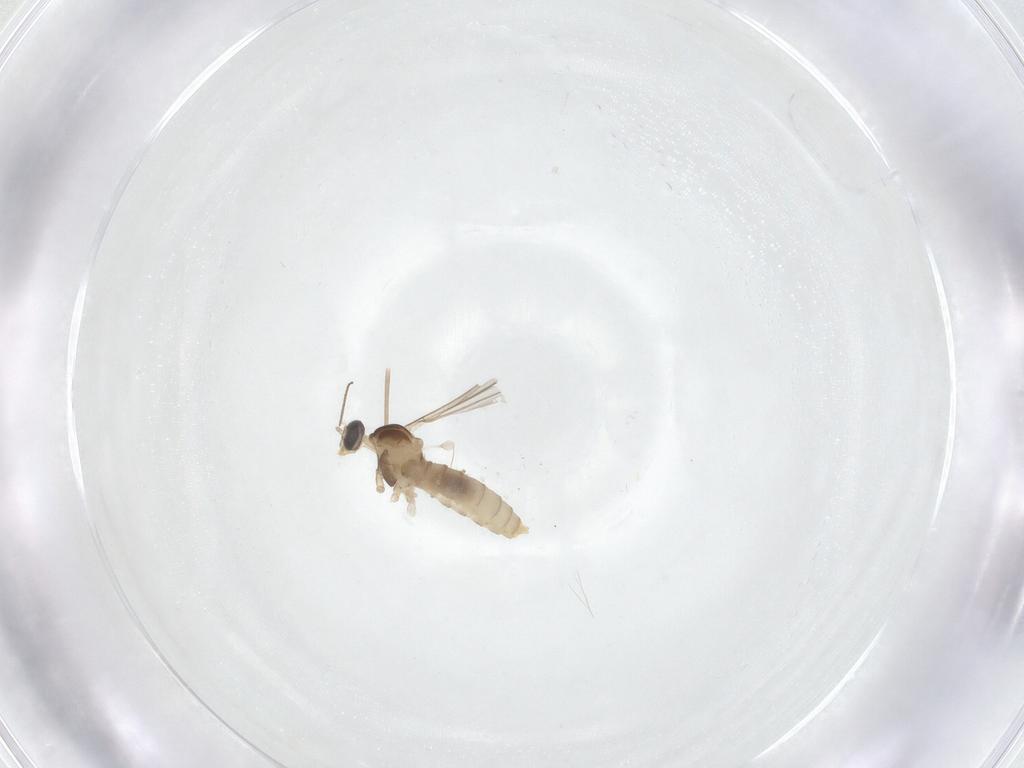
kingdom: Animalia
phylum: Arthropoda
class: Insecta
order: Diptera
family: Cecidomyiidae
